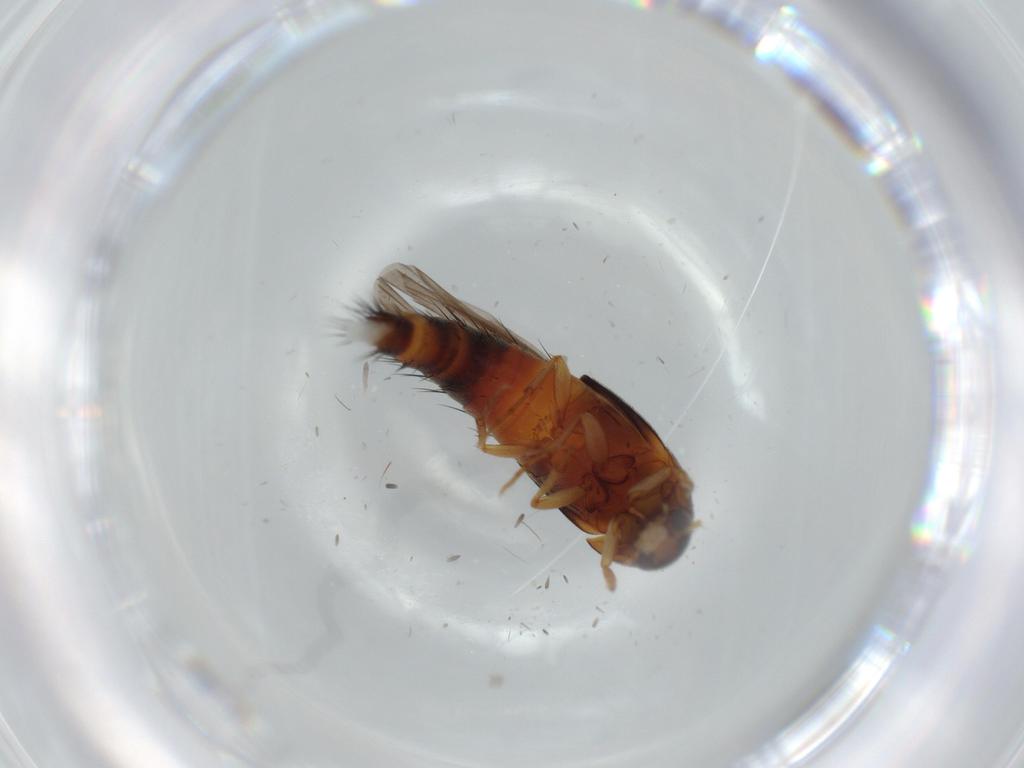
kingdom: Animalia
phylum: Arthropoda
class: Insecta
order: Coleoptera
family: Staphylinidae
